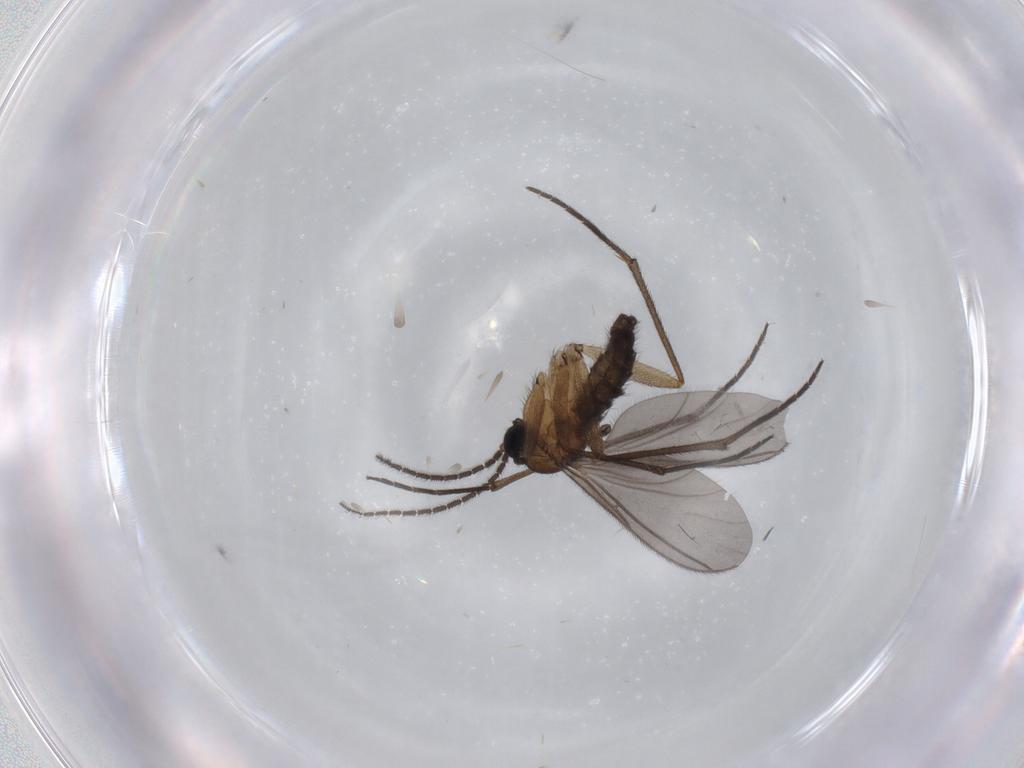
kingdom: Animalia
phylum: Arthropoda
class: Insecta
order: Diptera
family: Sciaridae
